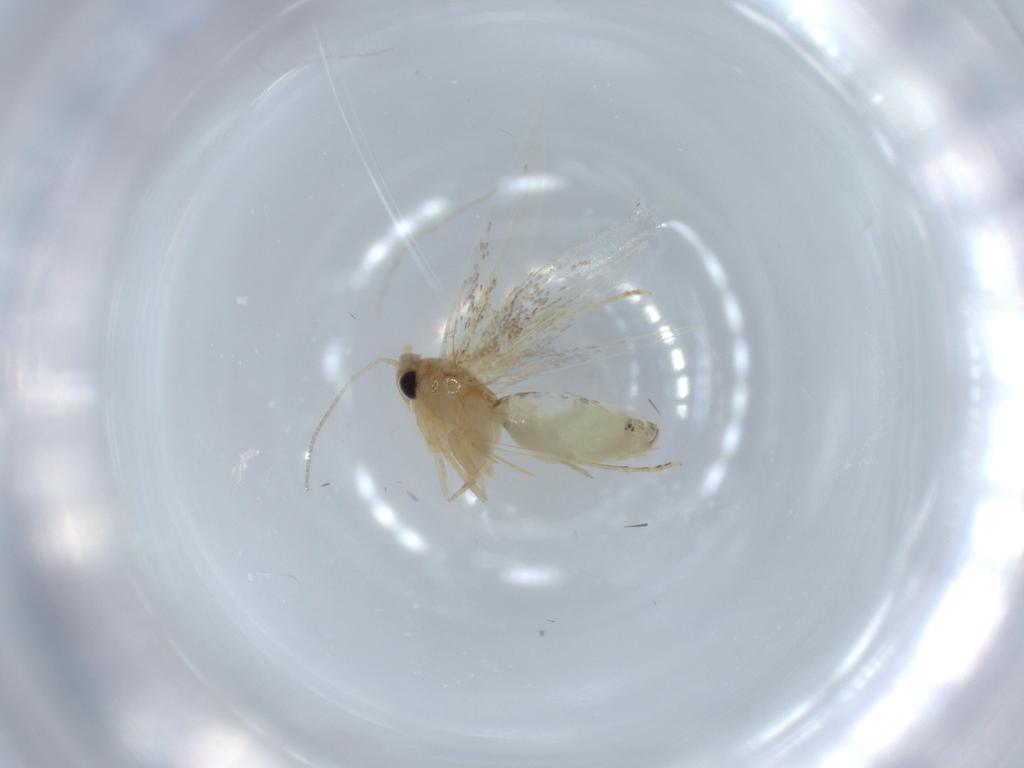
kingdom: Animalia
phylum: Arthropoda
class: Insecta
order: Lepidoptera
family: Bucculatricidae
